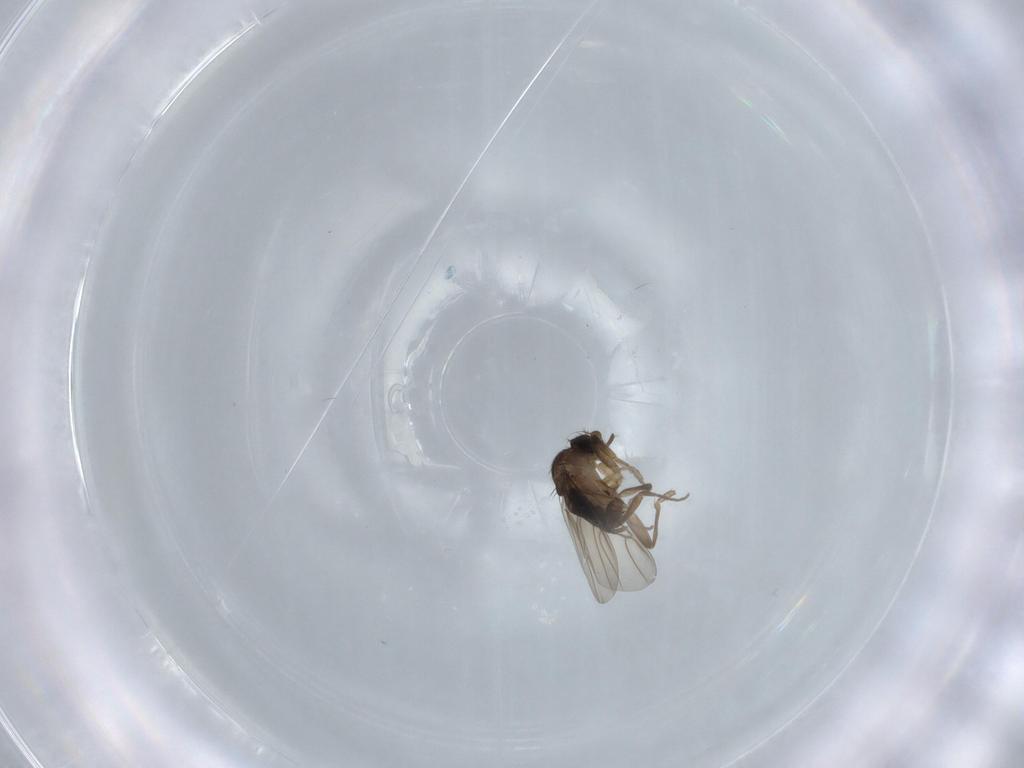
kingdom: Animalia
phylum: Arthropoda
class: Insecta
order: Diptera
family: Phoridae
